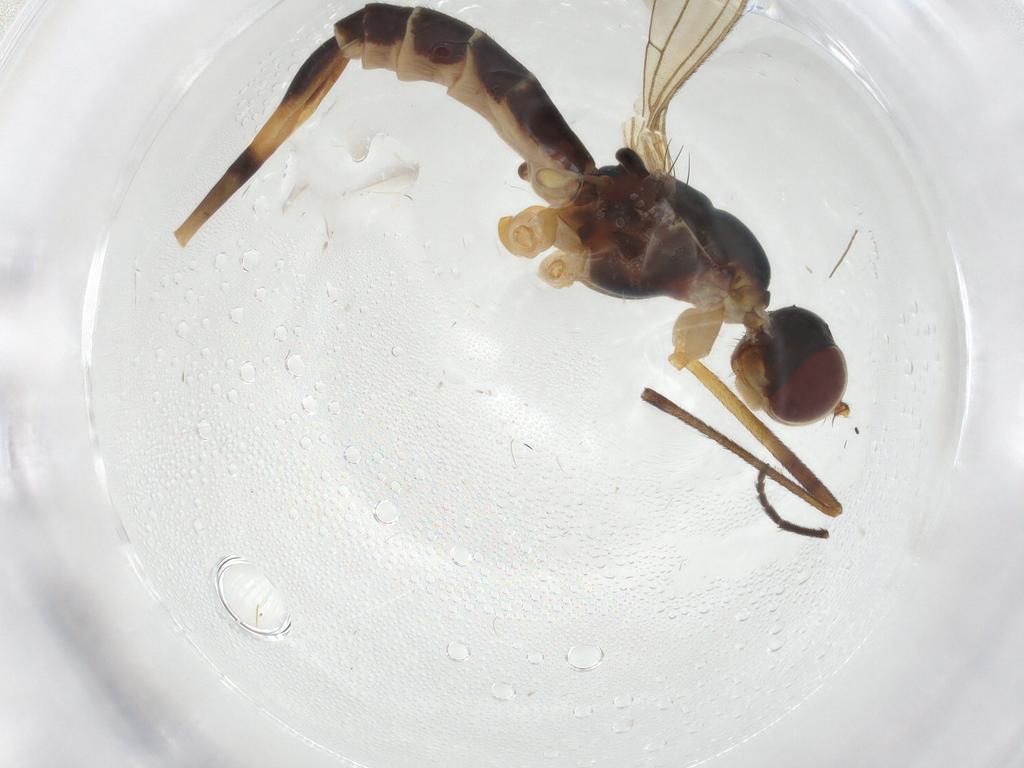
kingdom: Animalia
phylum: Arthropoda
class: Insecta
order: Diptera
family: Micropezidae
